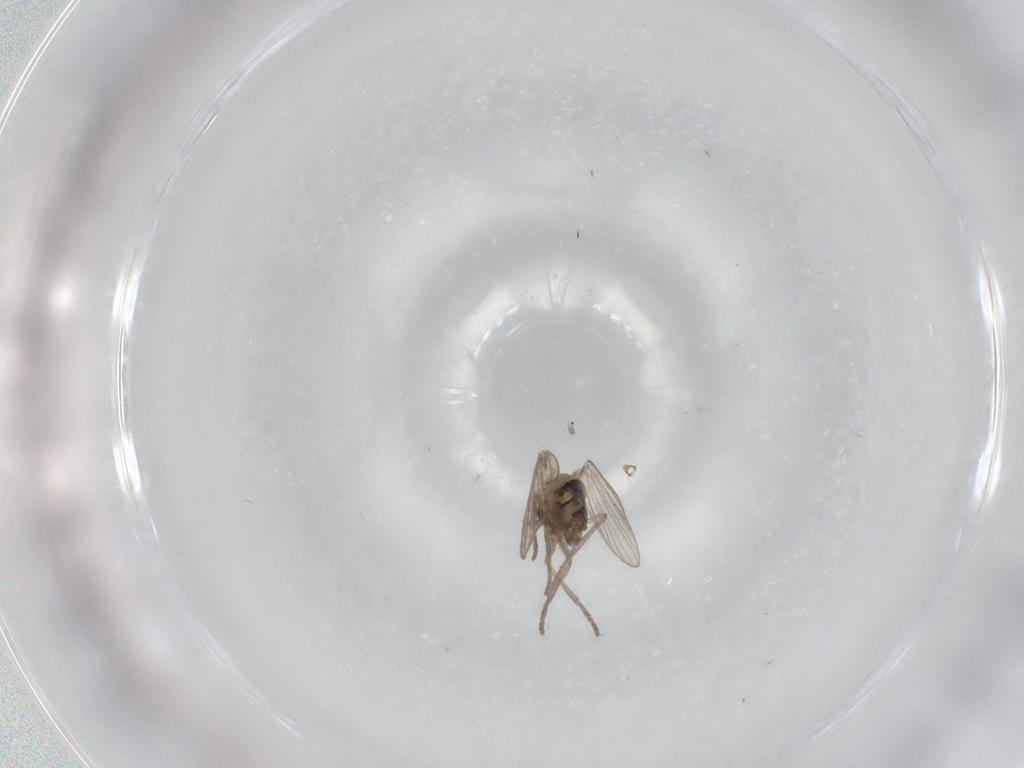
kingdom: Animalia
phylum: Arthropoda
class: Insecta
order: Diptera
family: Psychodidae
